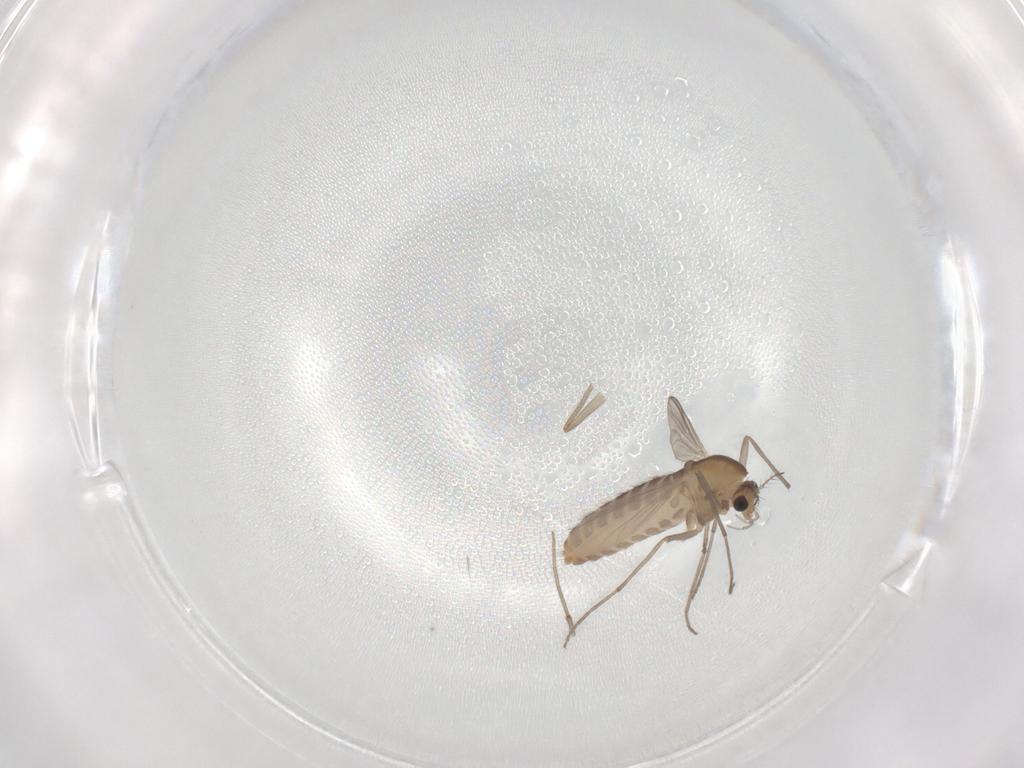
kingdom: Animalia
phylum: Arthropoda
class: Insecta
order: Diptera
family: Chironomidae
